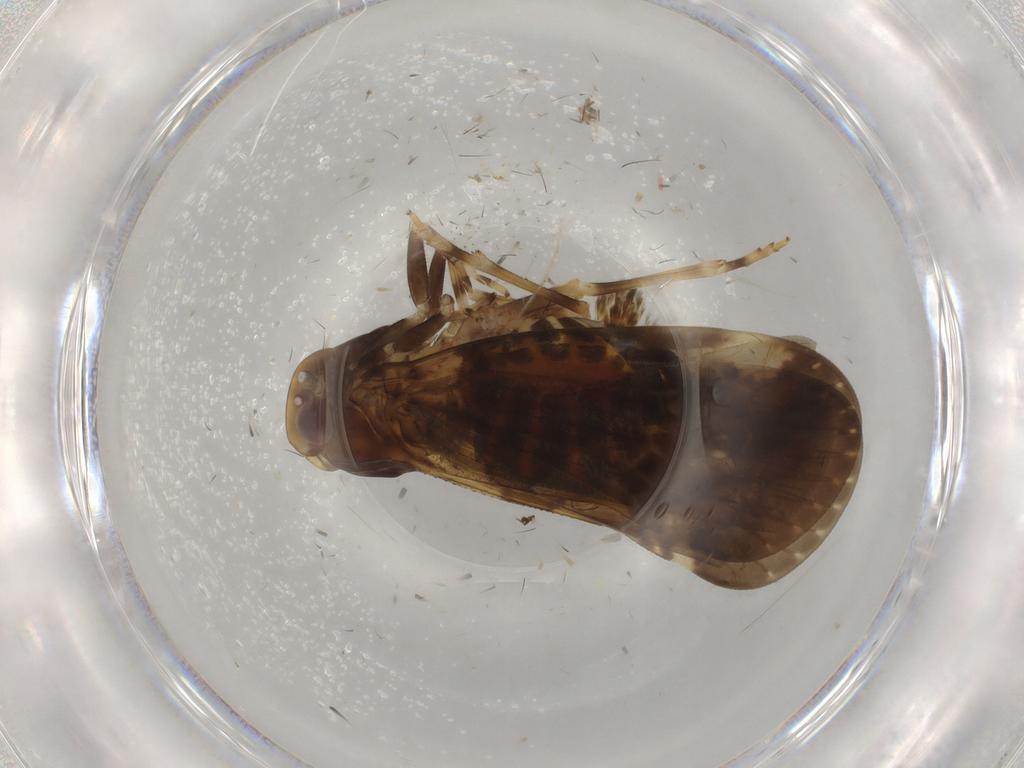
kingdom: Animalia
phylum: Arthropoda
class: Insecta
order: Hemiptera
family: Cixiidae
